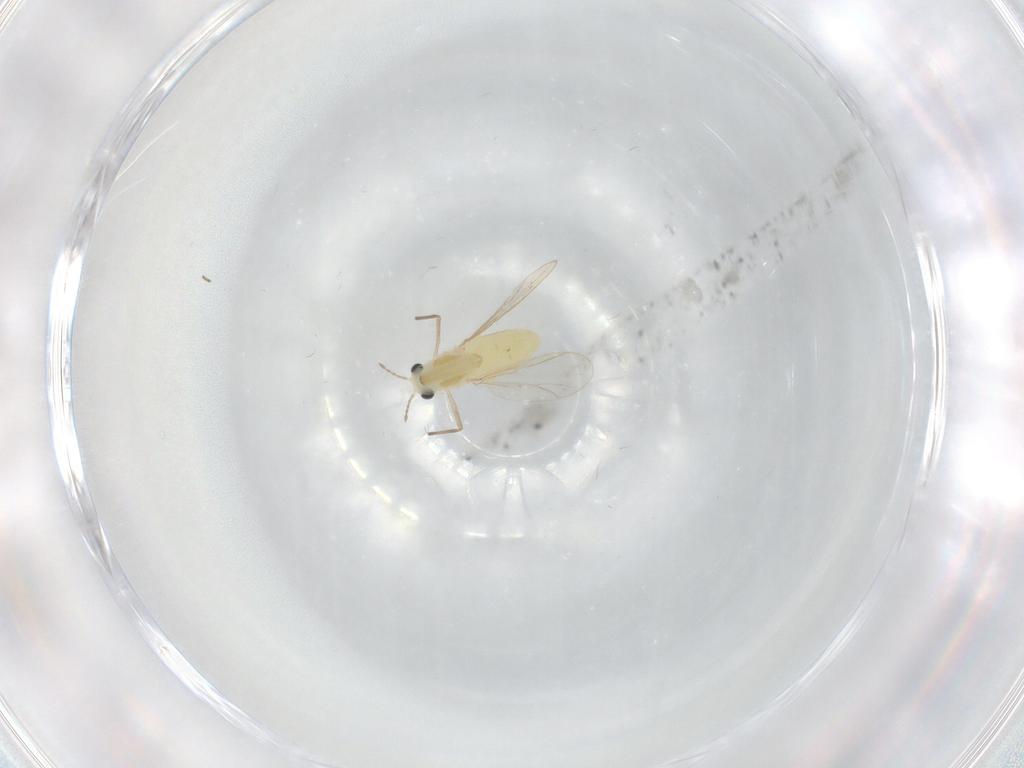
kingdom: Animalia
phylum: Arthropoda
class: Insecta
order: Diptera
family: Chironomidae
